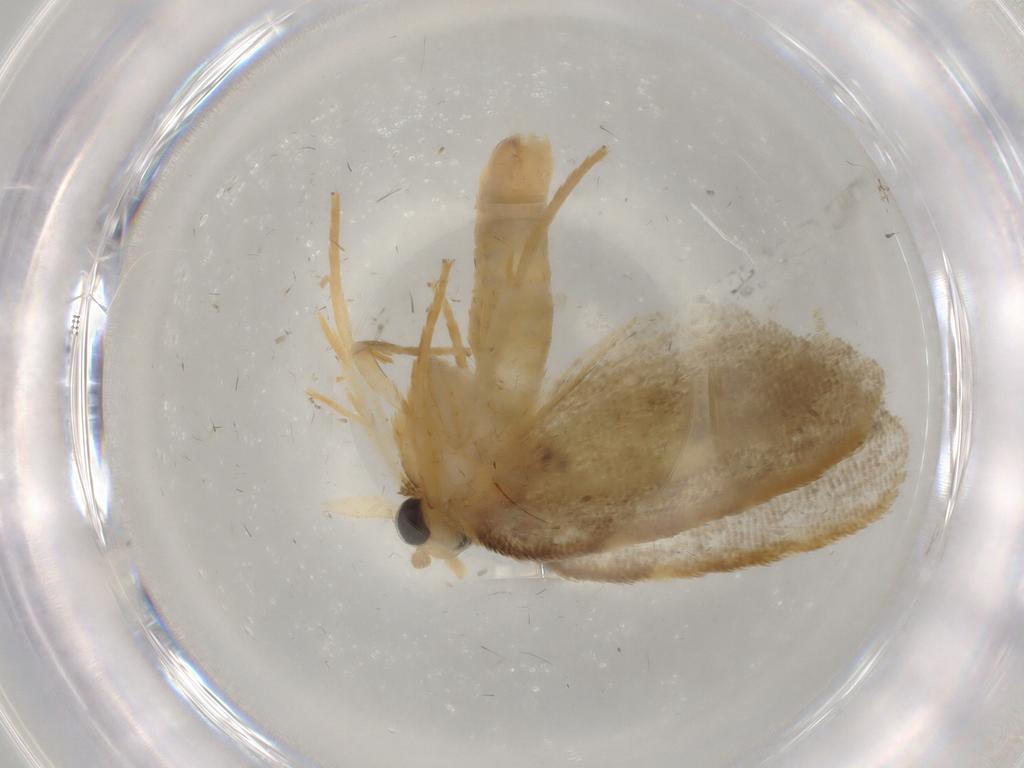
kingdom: Animalia
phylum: Arthropoda
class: Insecta
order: Lepidoptera
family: Psychidae
